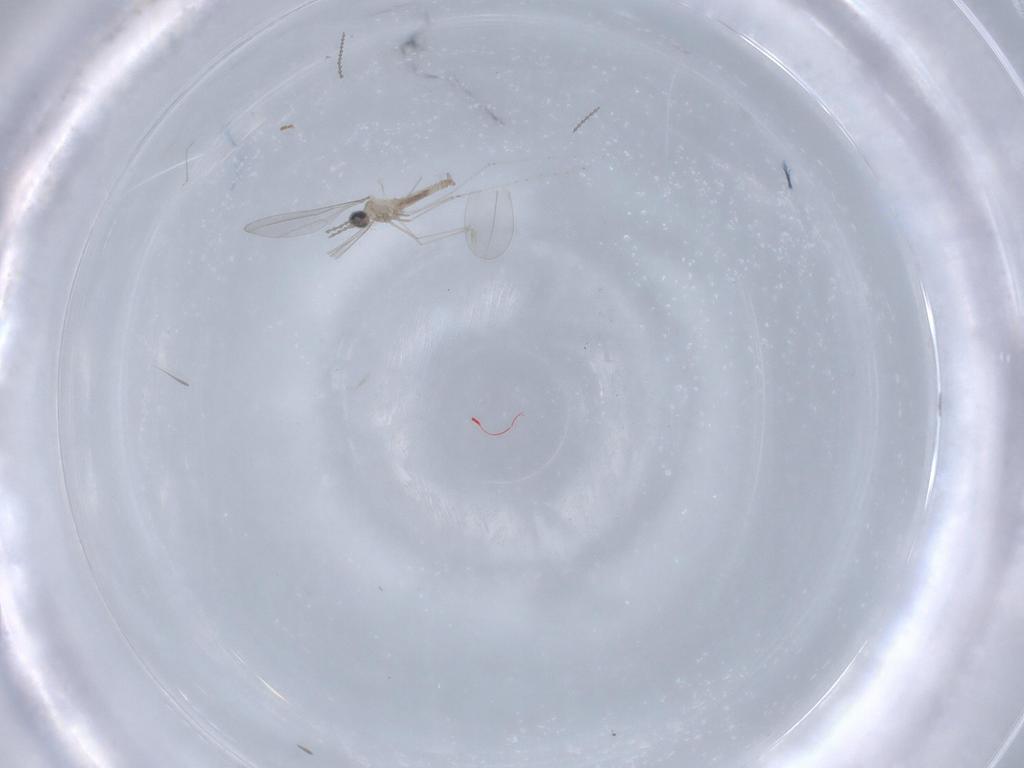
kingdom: Animalia
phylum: Arthropoda
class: Insecta
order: Diptera
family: Cecidomyiidae
